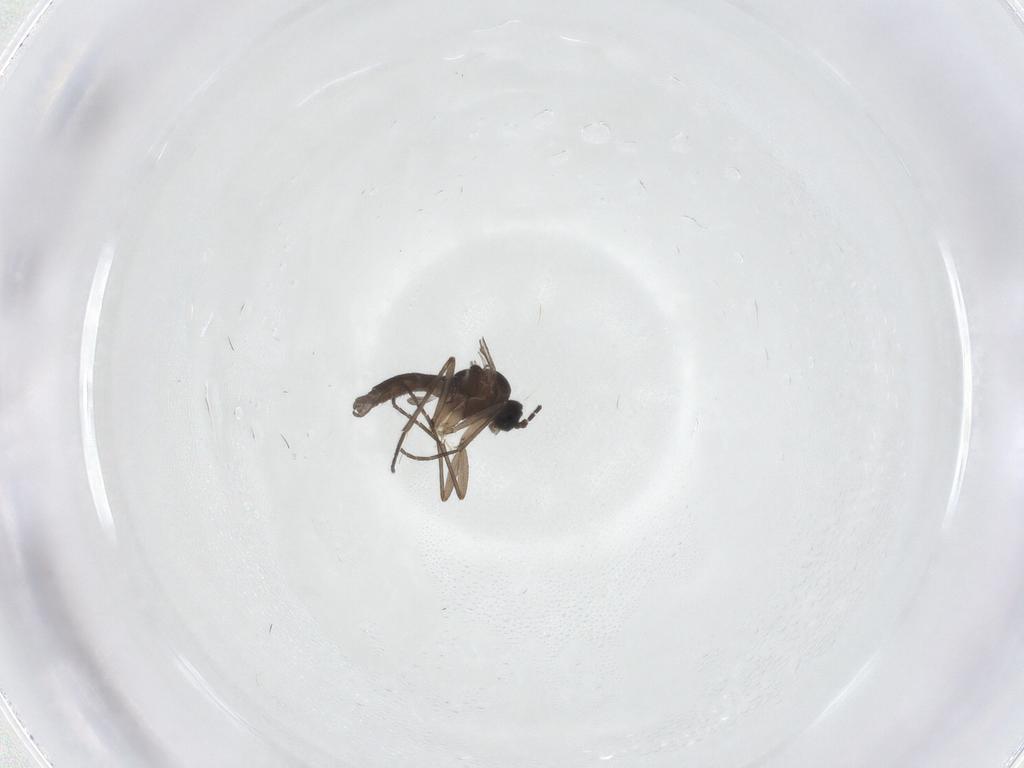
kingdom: Animalia
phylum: Arthropoda
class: Insecta
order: Diptera
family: Sciaridae
